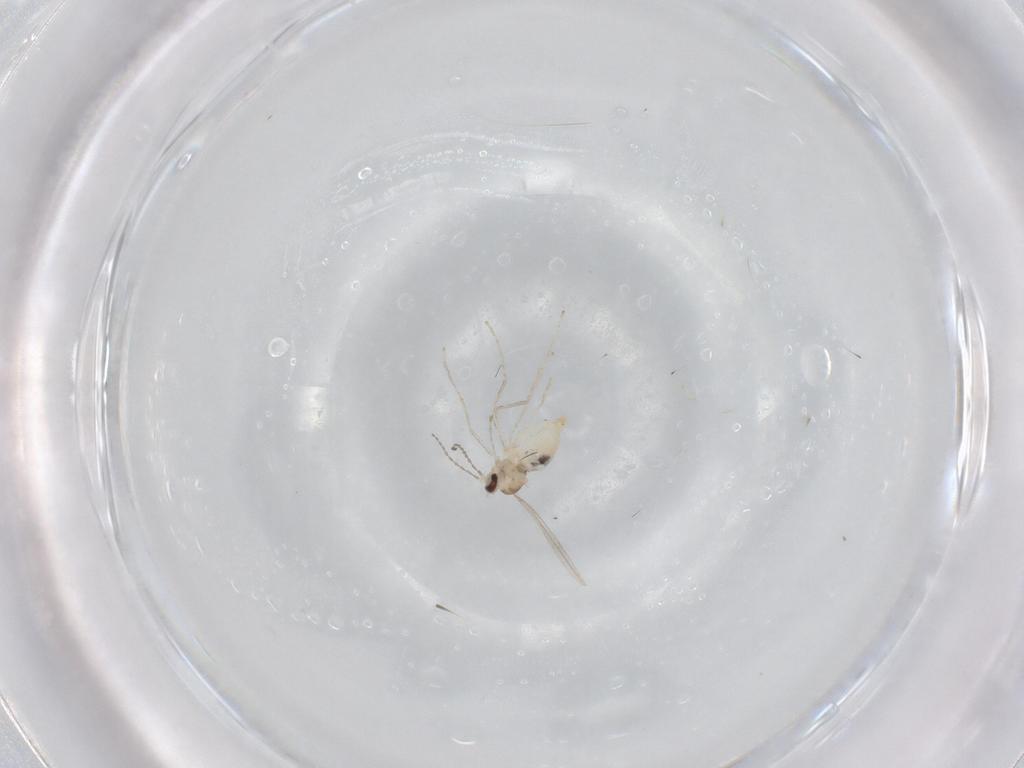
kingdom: Animalia
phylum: Arthropoda
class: Insecta
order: Diptera
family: Cecidomyiidae
